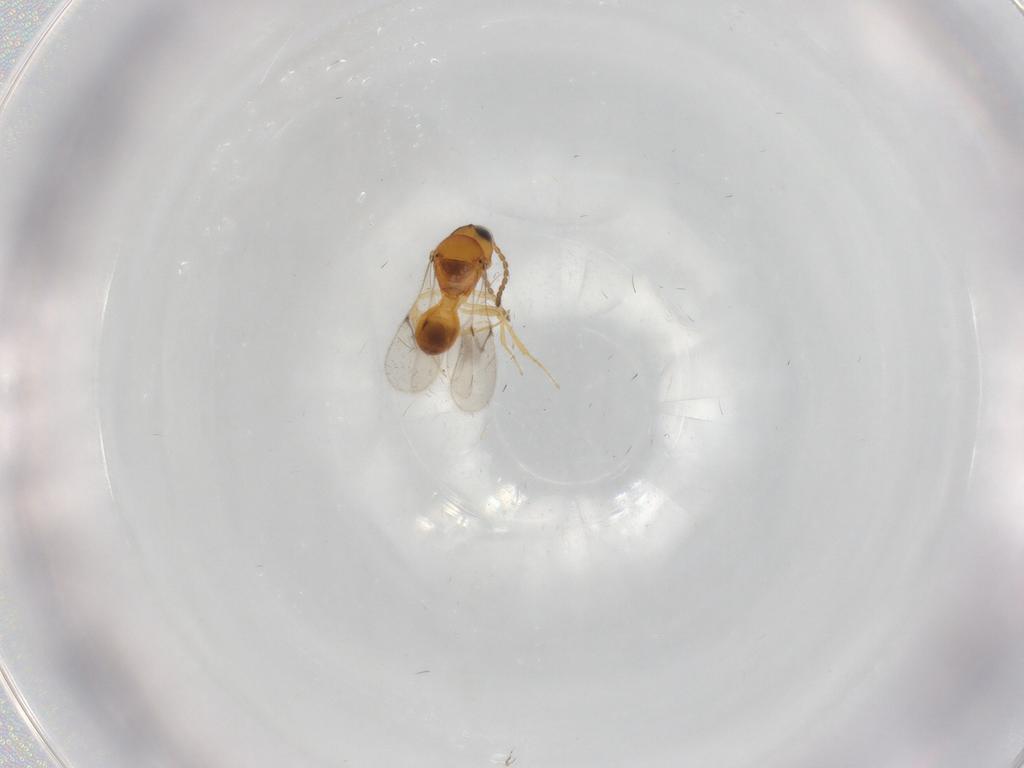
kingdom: Animalia
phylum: Arthropoda
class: Insecta
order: Hymenoptera
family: Scelionidae
